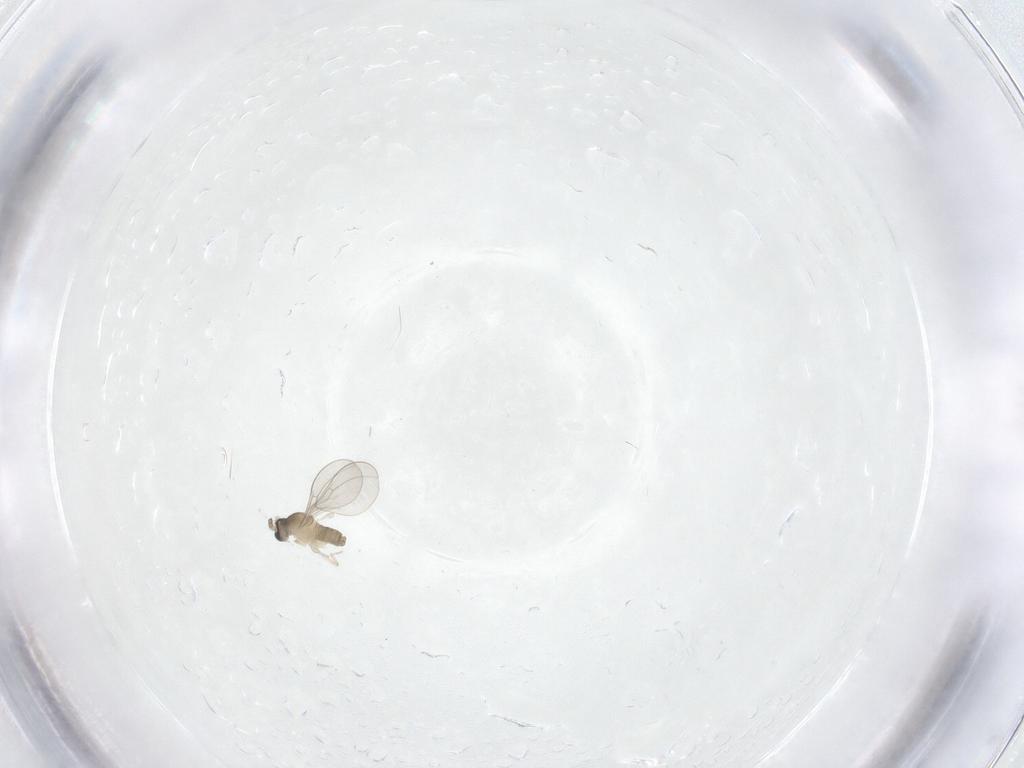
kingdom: Animalia
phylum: Arthropoda
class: Insecta
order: Diptera
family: Cecidomyiidae
